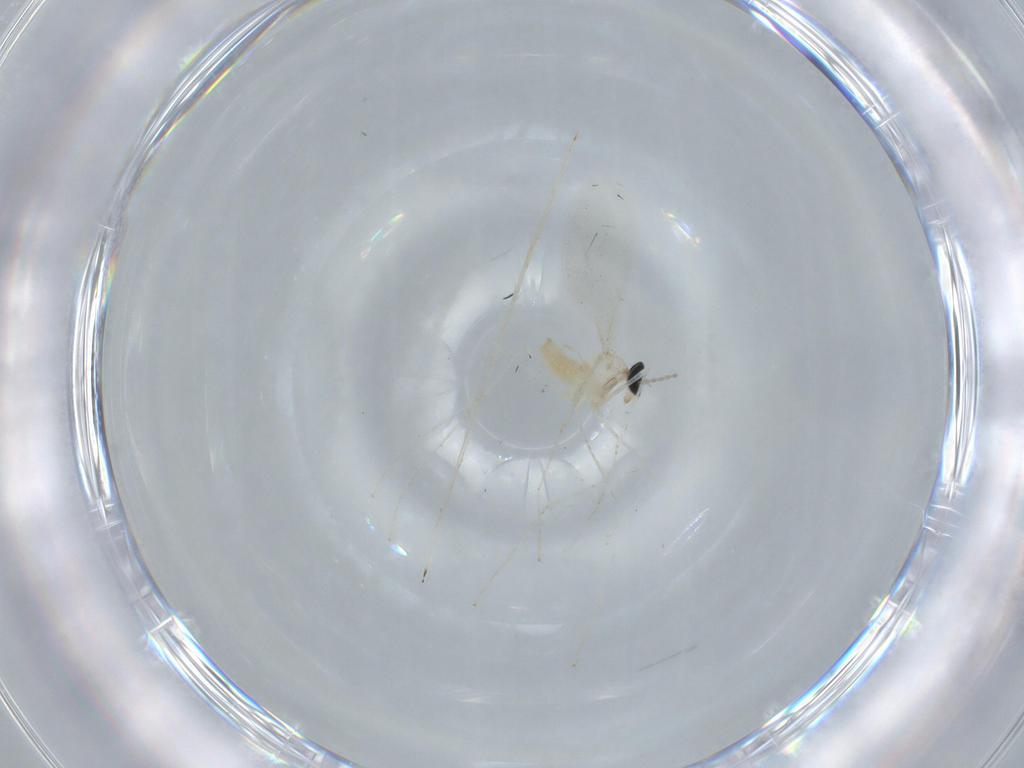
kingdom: Animalia
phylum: Arthropoda
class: Insecta
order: Diptera
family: Cecidomyiidae
